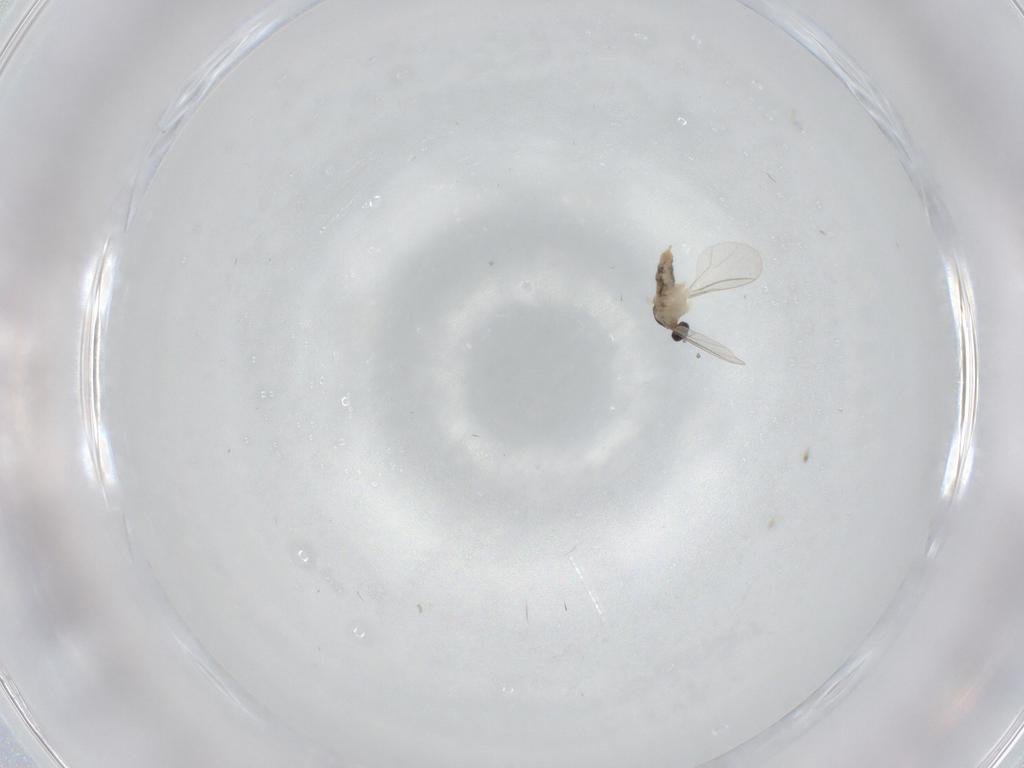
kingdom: Animalia
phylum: Arthropoda
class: Insecta
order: Diptera
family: Cecidomyiidae
